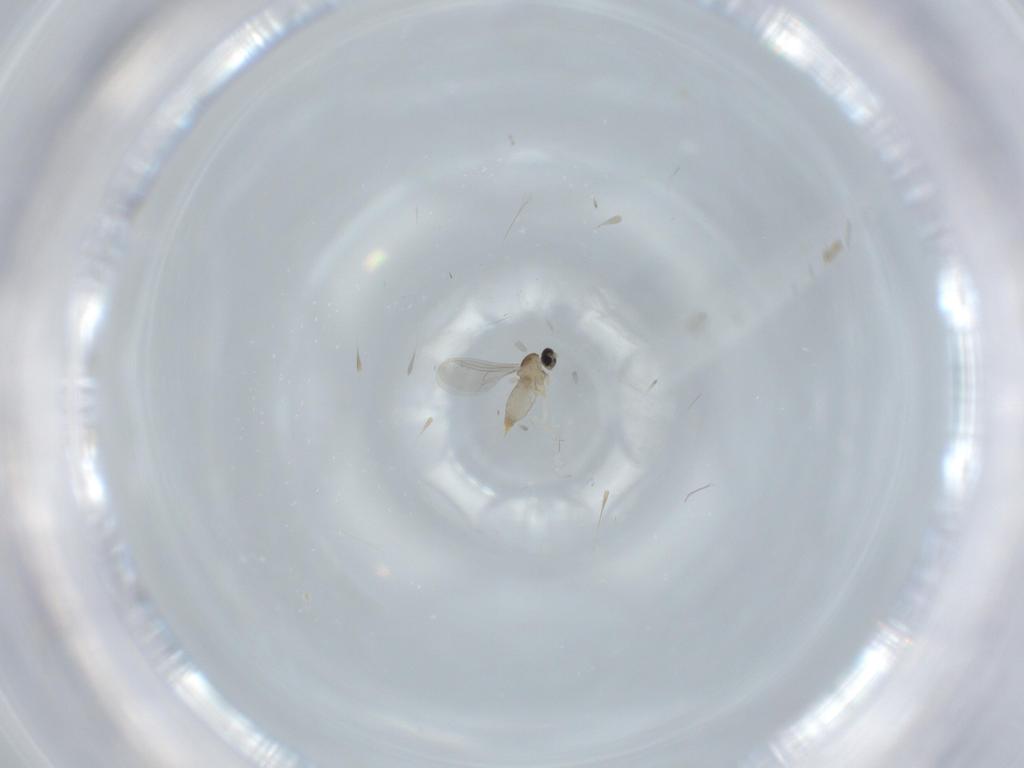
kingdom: Animalia
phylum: Arthropoda
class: Insecta
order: Diptera
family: Cecidomyiidae
